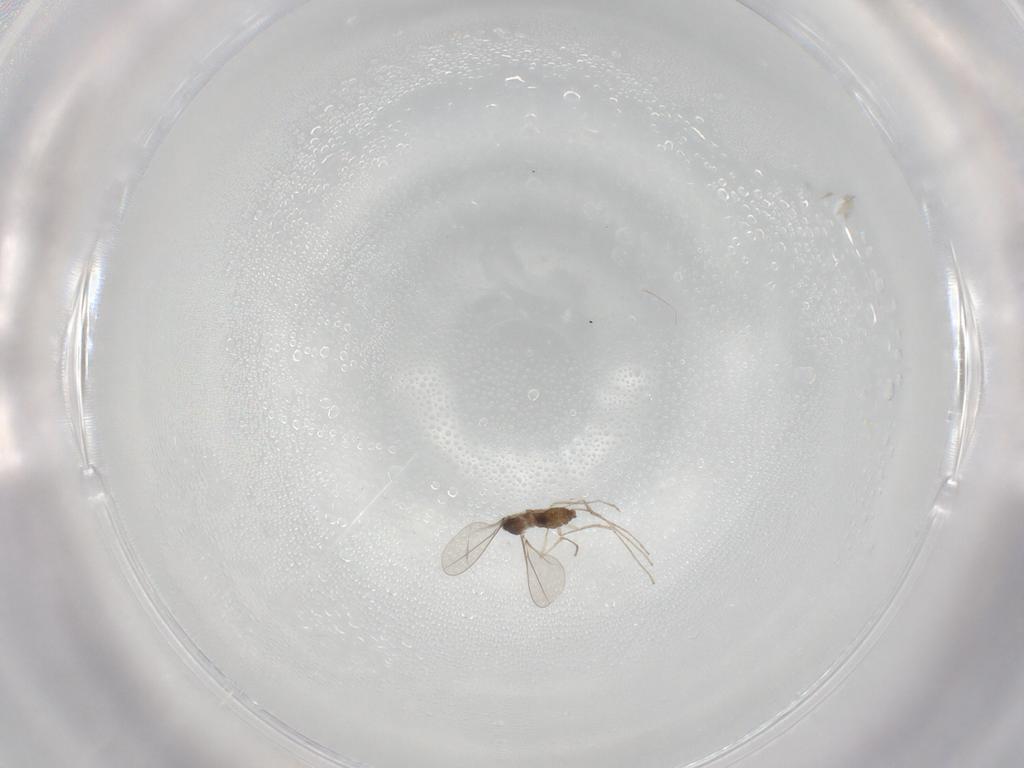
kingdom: Animalia
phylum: Arthropoda
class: Insecta
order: Diptera
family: Cecidomyiidae
